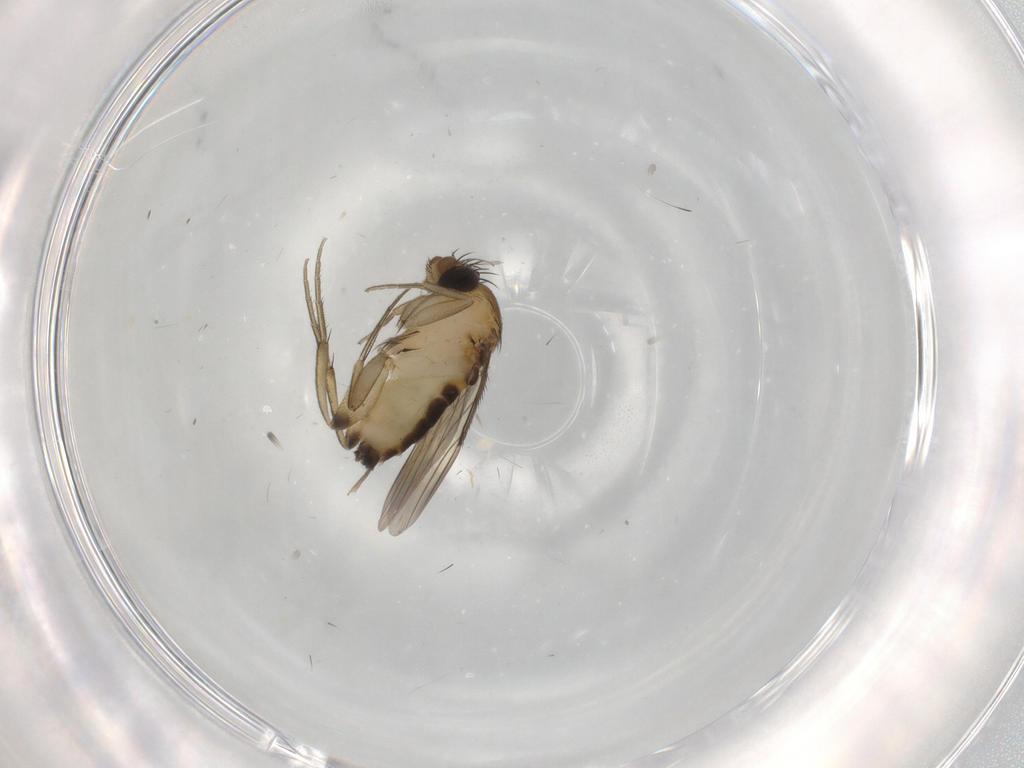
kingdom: Animalia
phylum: Arthropoda
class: Insecta
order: Diptera
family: Phoridae
